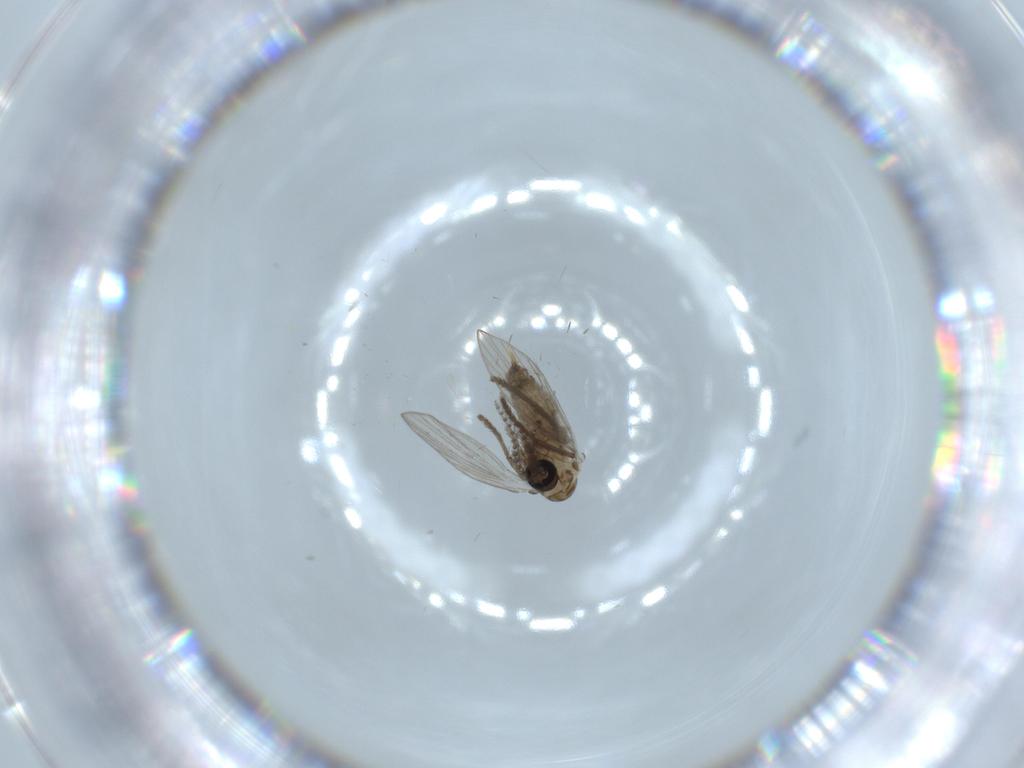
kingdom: Animalia
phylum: Arthropoda
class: Insecta
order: Diptera
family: Psychodidae
